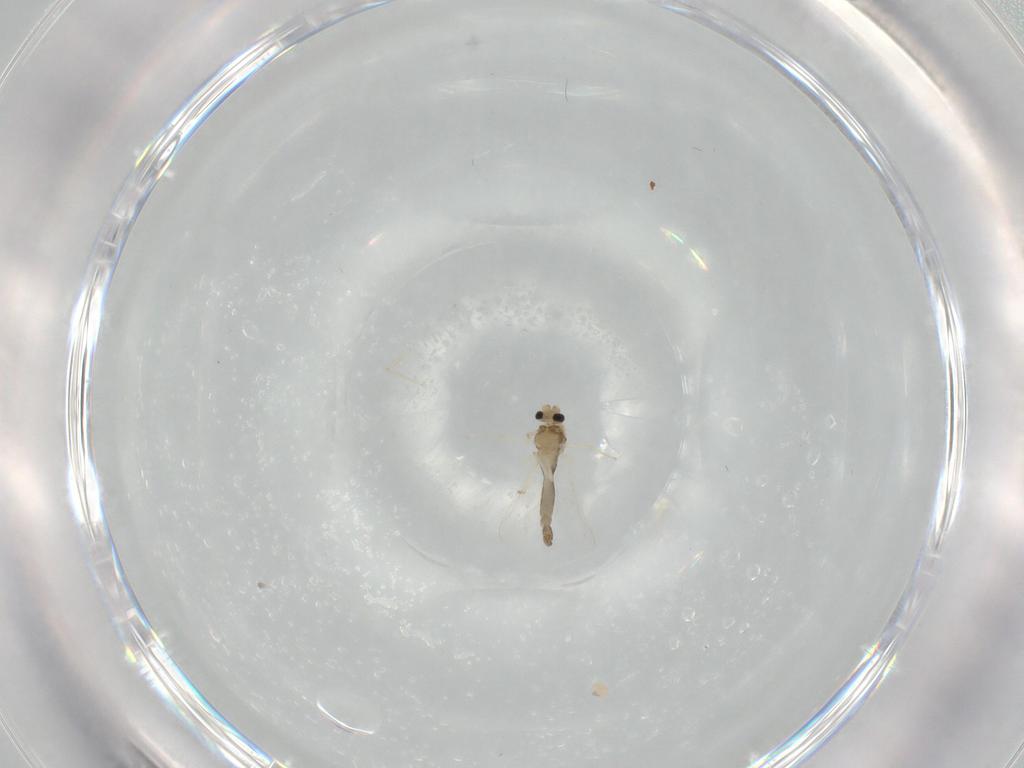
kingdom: Animalia
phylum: Arthropoda
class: Insecta
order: Diptera
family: Chironomidae
